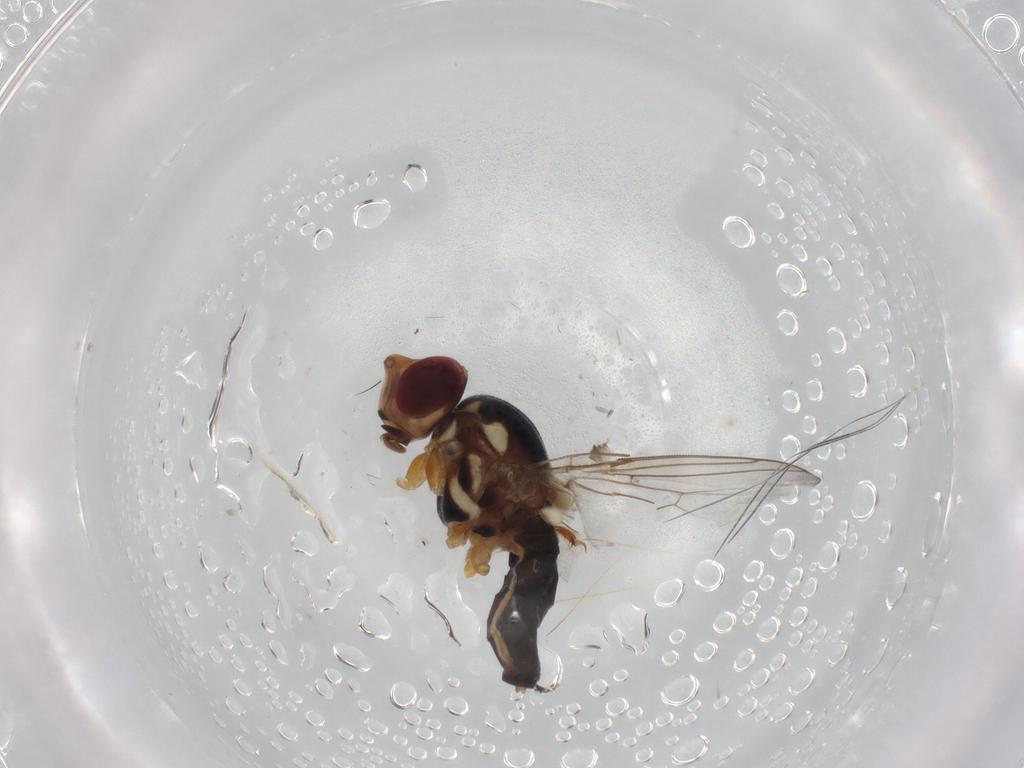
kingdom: Animalia
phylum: Arthropoda
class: Insecta
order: Diptera
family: Chloropidae
